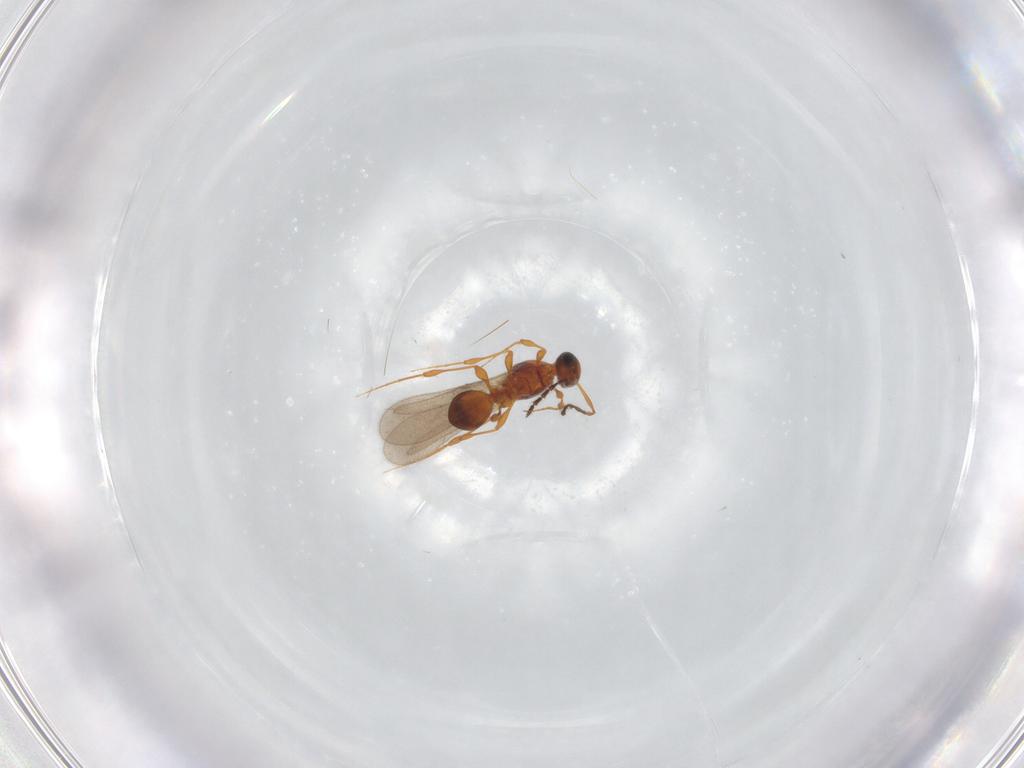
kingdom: Animalia
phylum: Arthropoda
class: Insecta
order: Hymenoptera
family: Platygastridae
